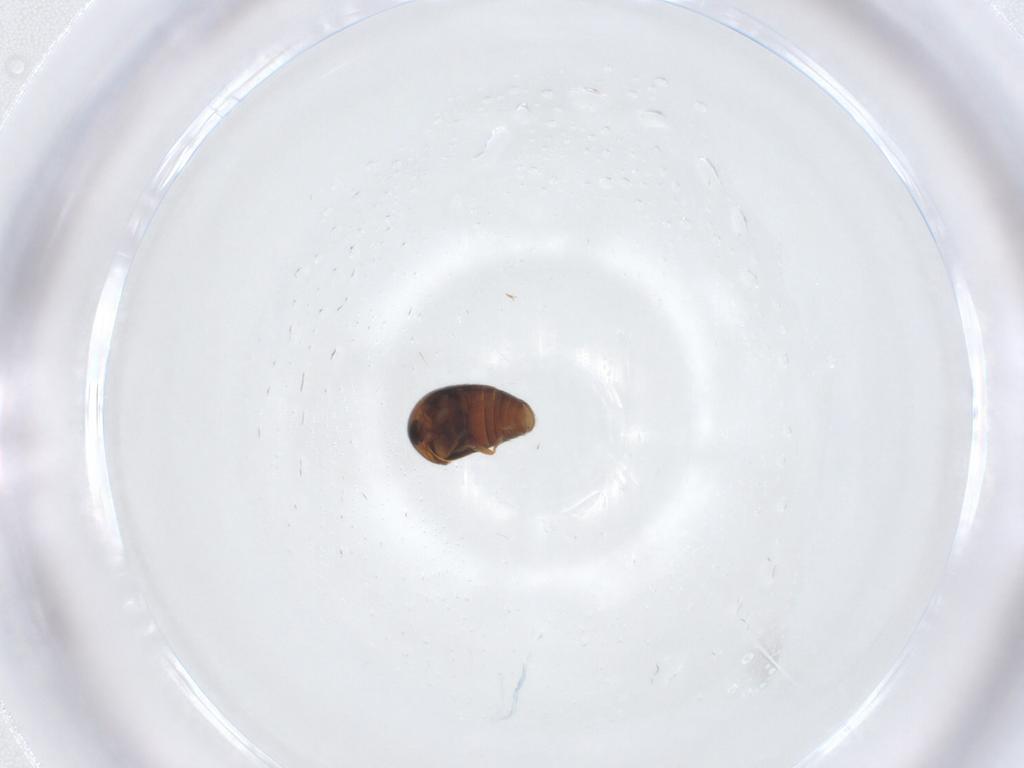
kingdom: Animalia
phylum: Arthropoda
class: Insecta
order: Coleoptera
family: Corylophidae
